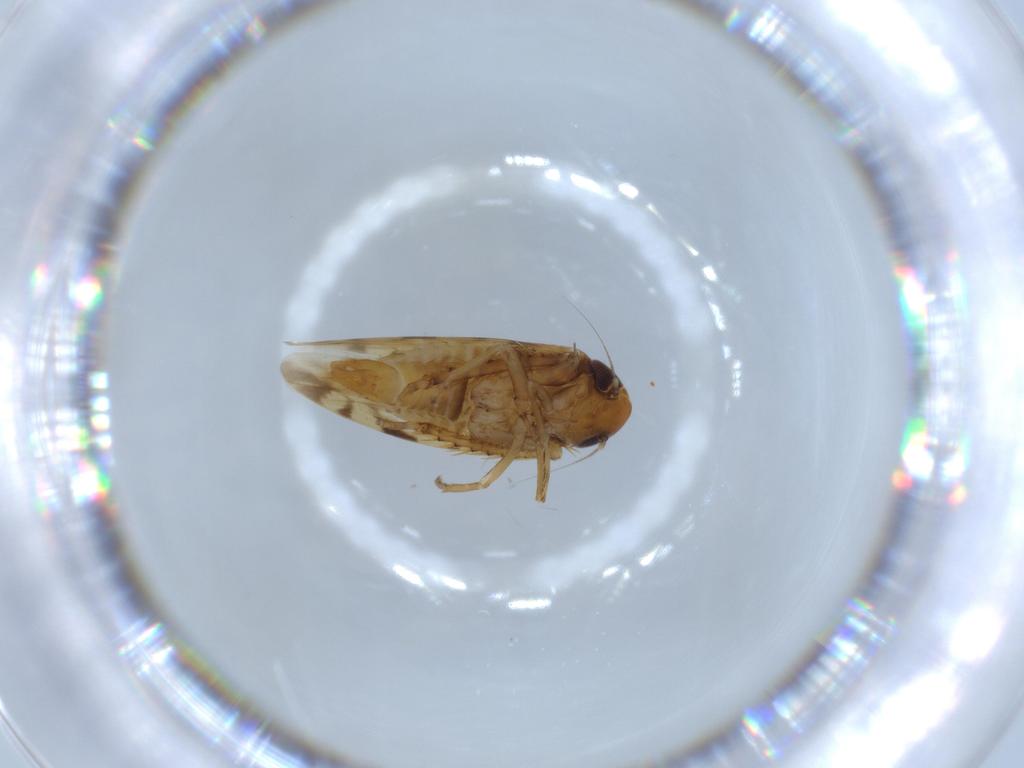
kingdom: Animalia
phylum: Arthropoda
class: Insecta
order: Hemiptera
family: Cicadellidae
